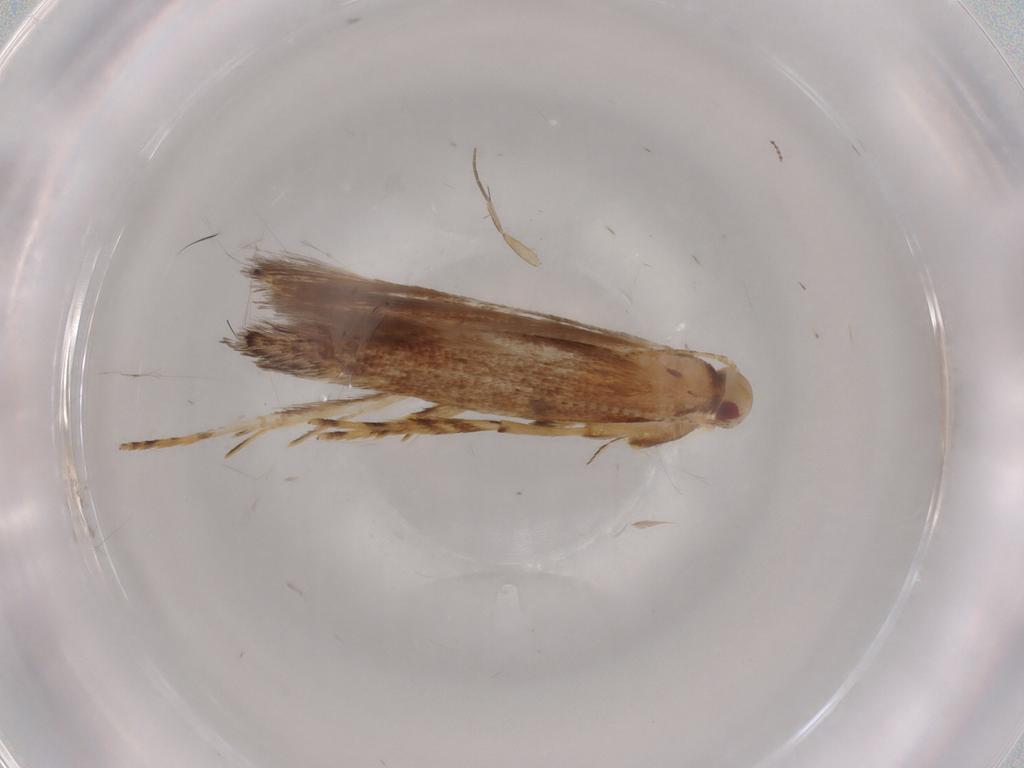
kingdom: Animalia
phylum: Arthropoda
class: Insecta
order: Lepidoptera
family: Cosmopterigidae
